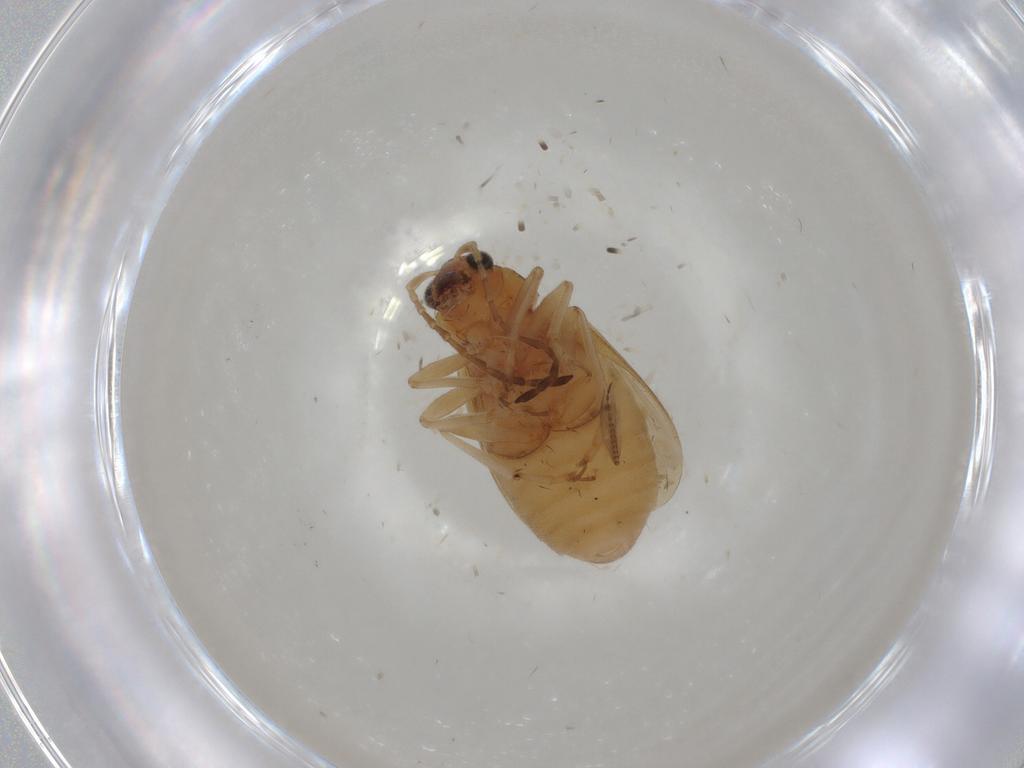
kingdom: Animalia
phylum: Arthropoda
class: Insecta
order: Coleoptera
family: Chrysomelidae
